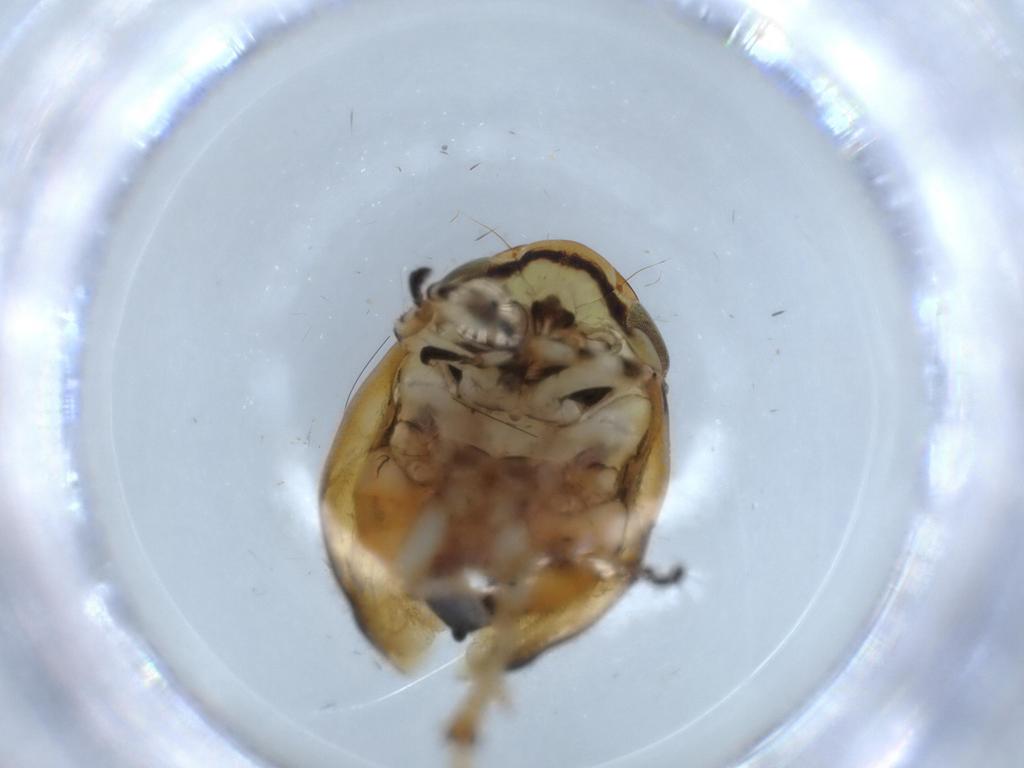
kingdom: Animalia
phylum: Arthropoda
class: Insecta
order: Hemiptera
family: Clastopteridae
